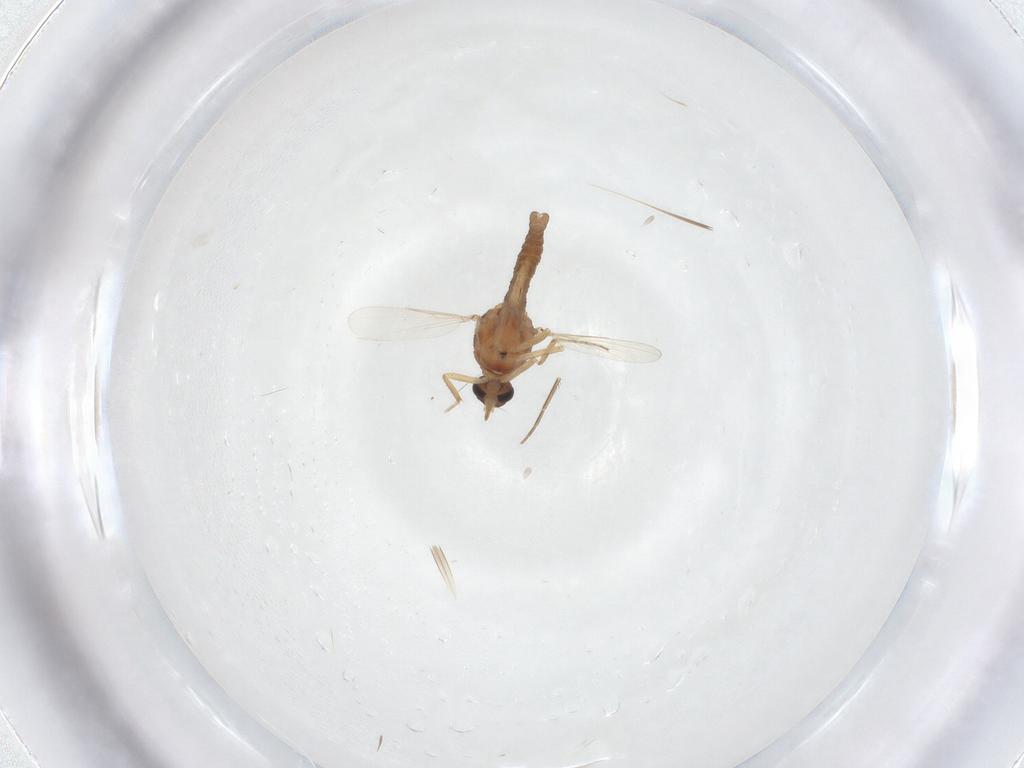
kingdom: Animalia
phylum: Arthropoda
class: Insecta
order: Diptera
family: Ceratopogonidae
